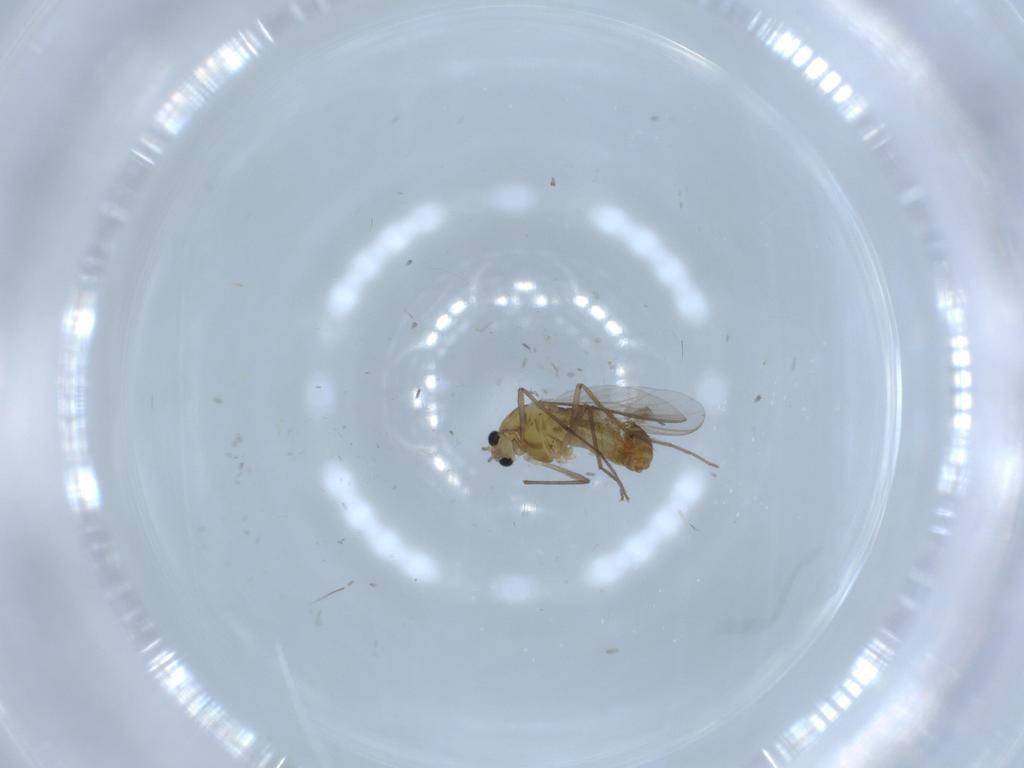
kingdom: Animalia
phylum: Arthropoda
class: Insecta
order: Diptera
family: Chironomidae
